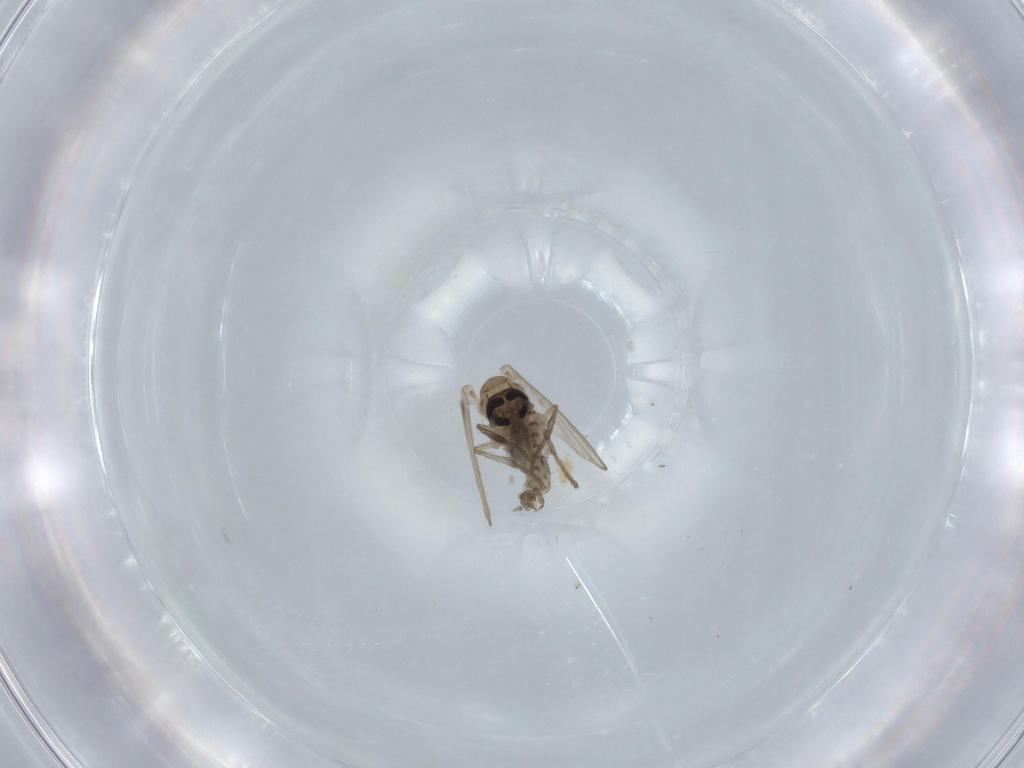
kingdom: Animalia
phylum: Arthropoda
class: Insecta
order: Diptera
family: Psychodidae
